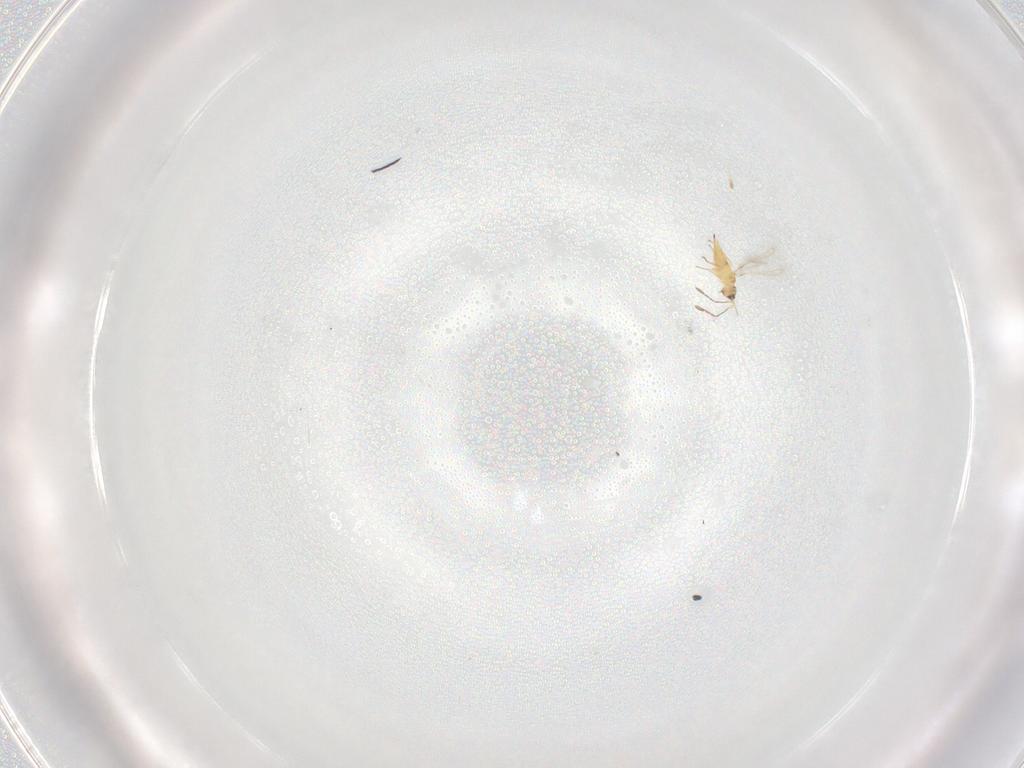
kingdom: Animalia
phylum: Arthropoda
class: Insecta
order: Hymenoptera
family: Mymaridae
